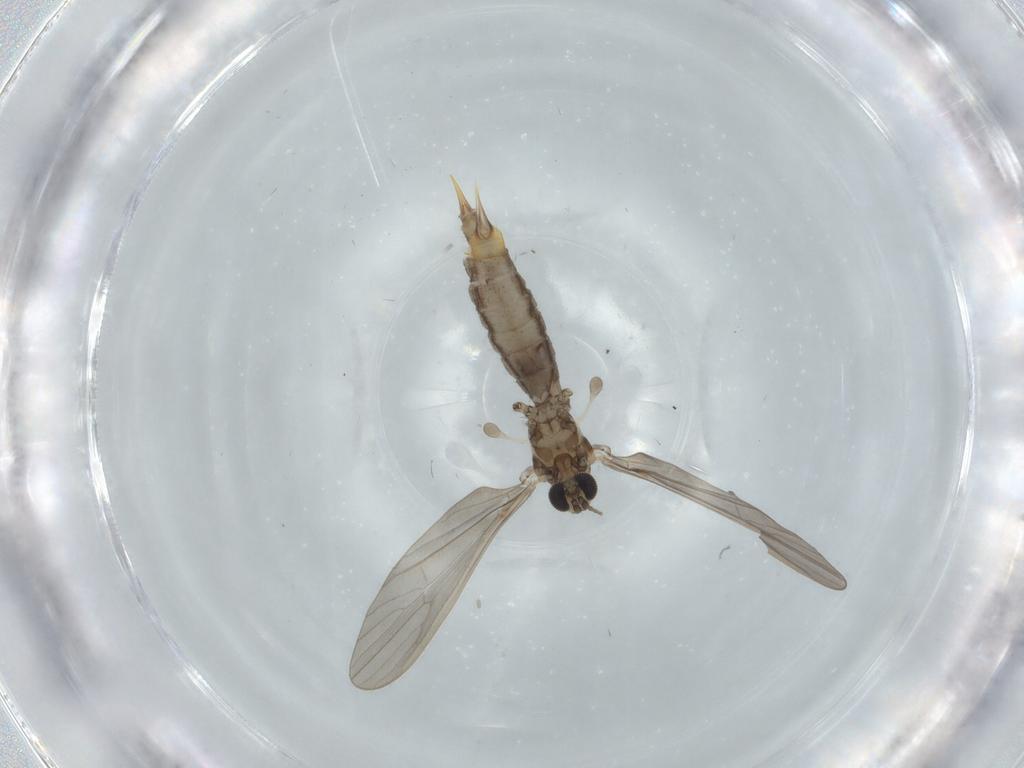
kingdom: Animalia
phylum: Arthropoda
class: Insecta
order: Diptera
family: Limoniidae
